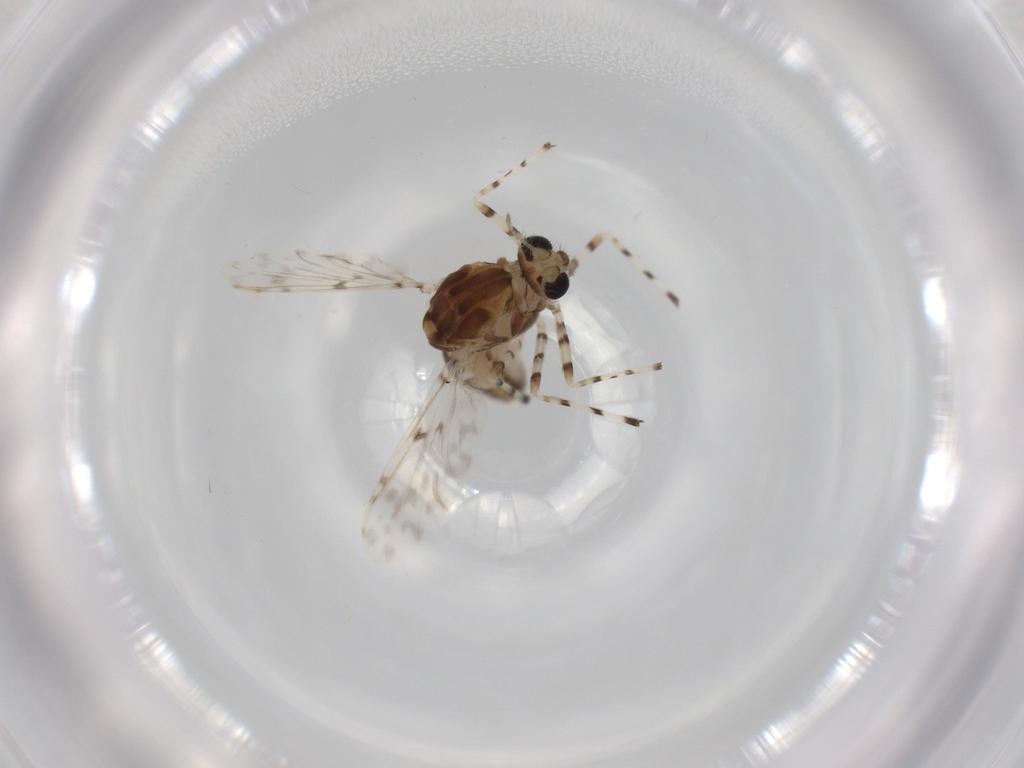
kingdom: Animalia
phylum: Arthropoda
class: Insecta
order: Diptera
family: Chironomidae
